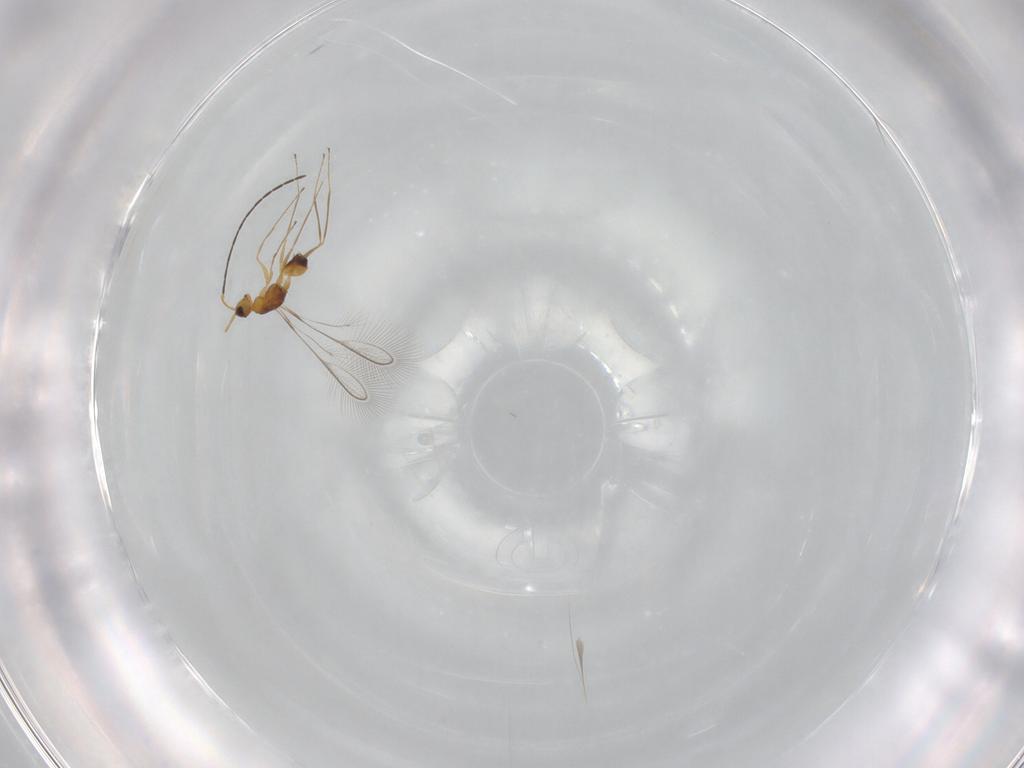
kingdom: Animalia
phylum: Arthropoda
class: Insecta
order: Hymenoptera
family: Mymaridae
